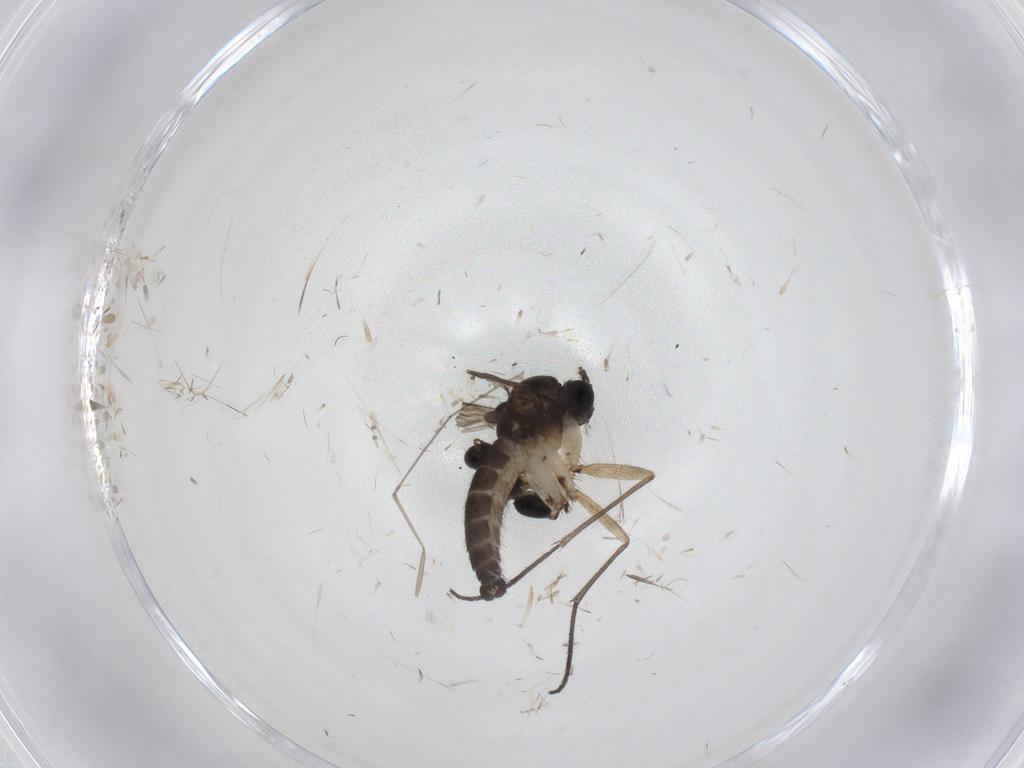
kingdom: Animalia
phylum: Arthropoda
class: Insecta
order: Diptera
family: Sciaridae
